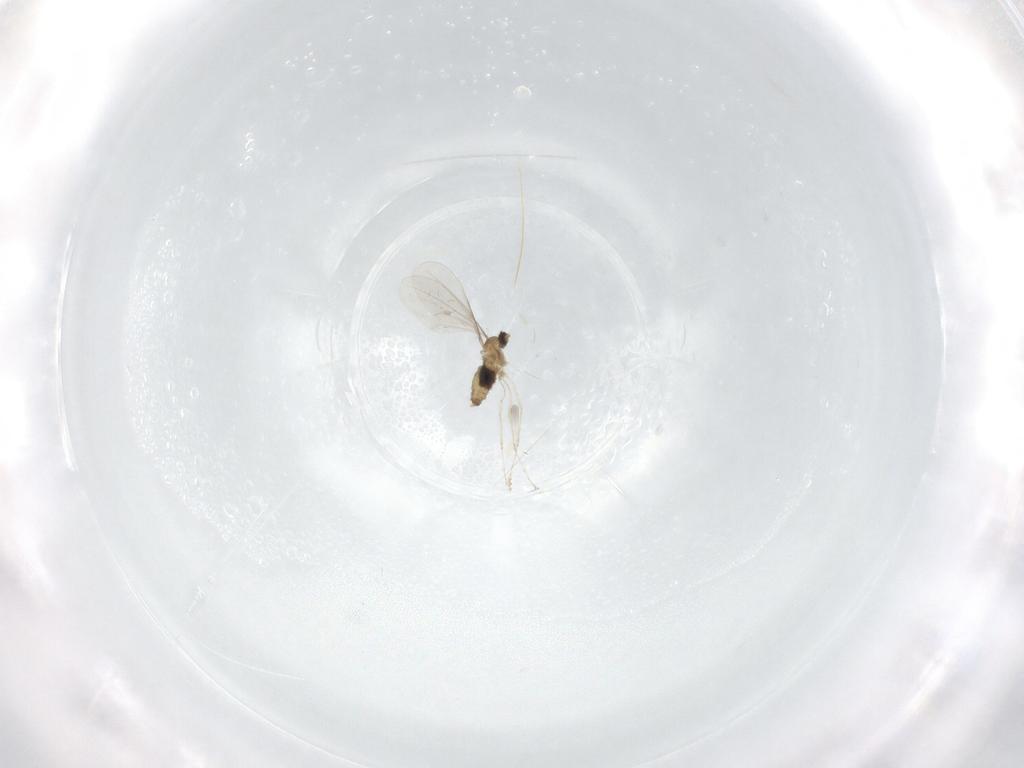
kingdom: Animalia
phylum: Arthropoda
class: Insecta
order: Diptera
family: Cecidomyiidae
